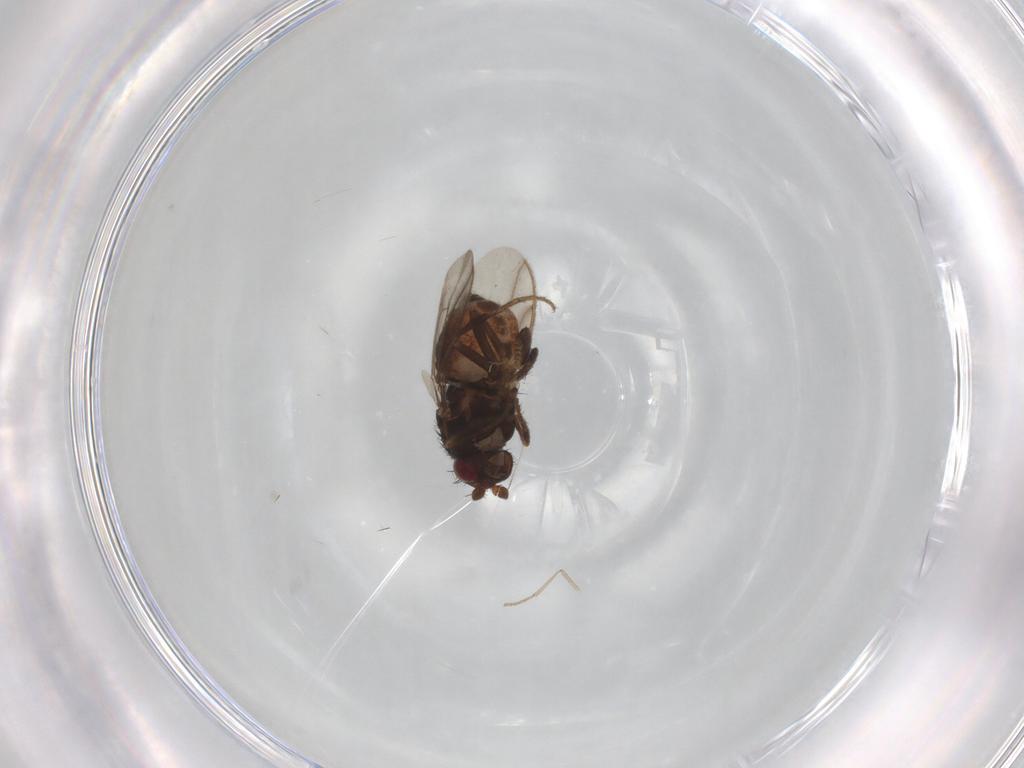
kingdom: Animalia
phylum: Arthropoda
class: Insecta
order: Diptera
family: Sphaeroceridae
